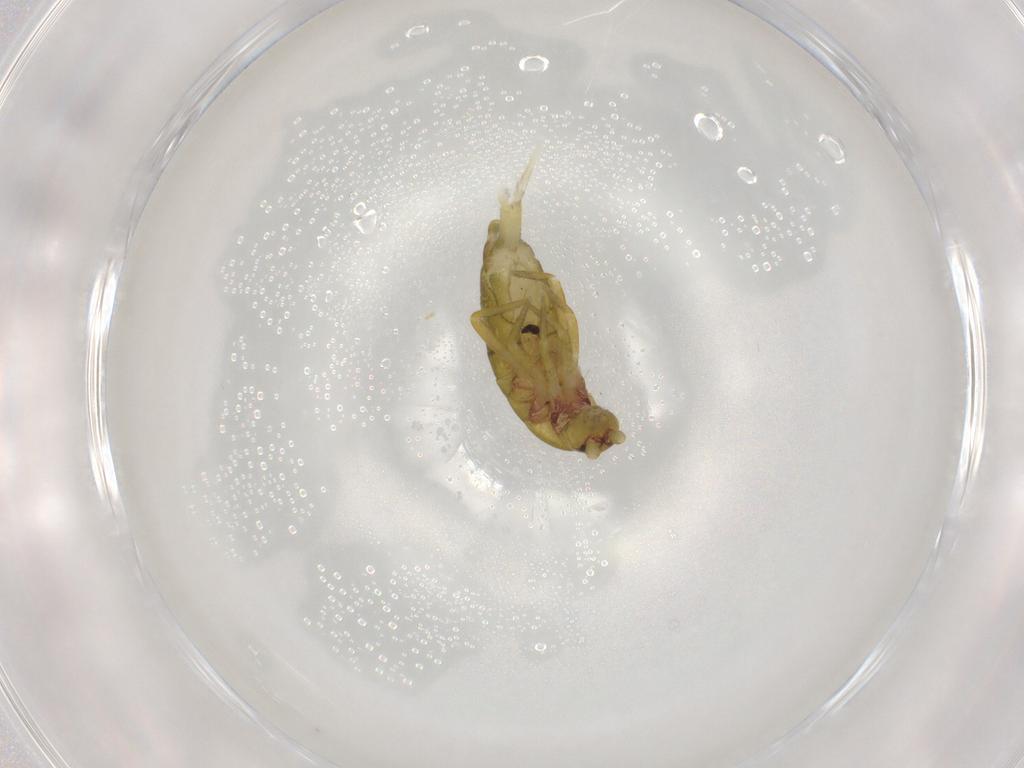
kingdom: Animalia
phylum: Arthropoda
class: Collembola
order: Entomobryomorpha
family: Tomoceridae
